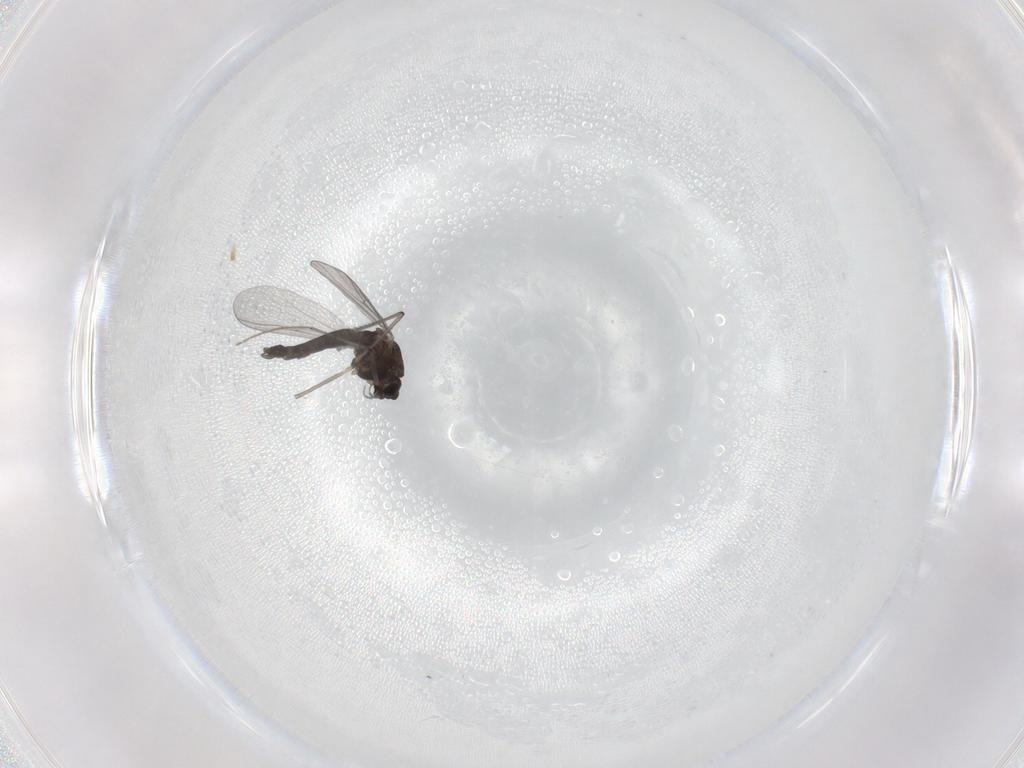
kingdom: Animalia
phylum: Arthropoda
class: Insecta
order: Diptera
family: Chironomidae
